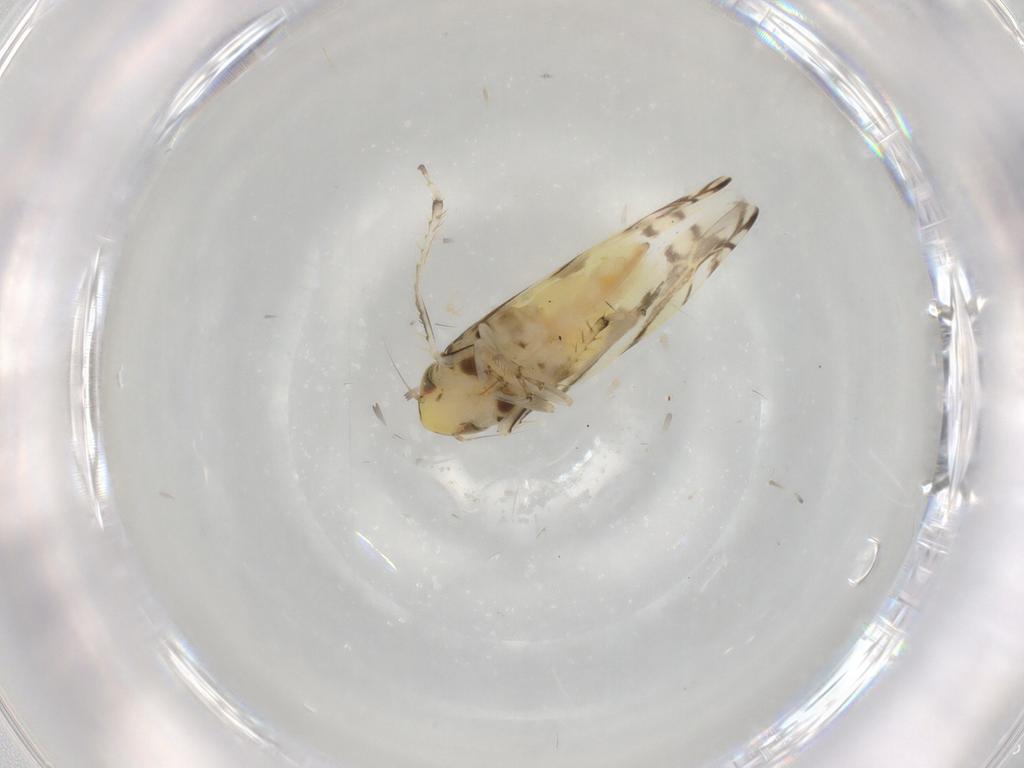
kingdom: Animalia
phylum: Arthropoda
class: Insecta
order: Hemiptera
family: Cicadellidae
